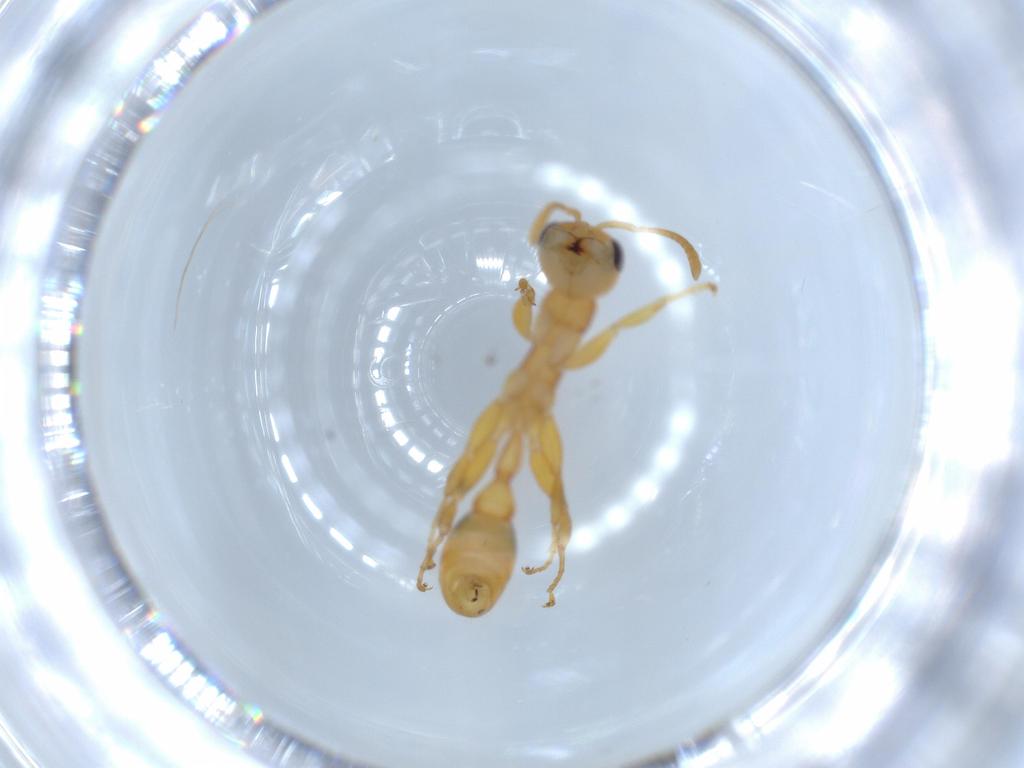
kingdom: Animalia
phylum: Arthropoda
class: Insecta
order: Hymenoptera
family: Formicidae
